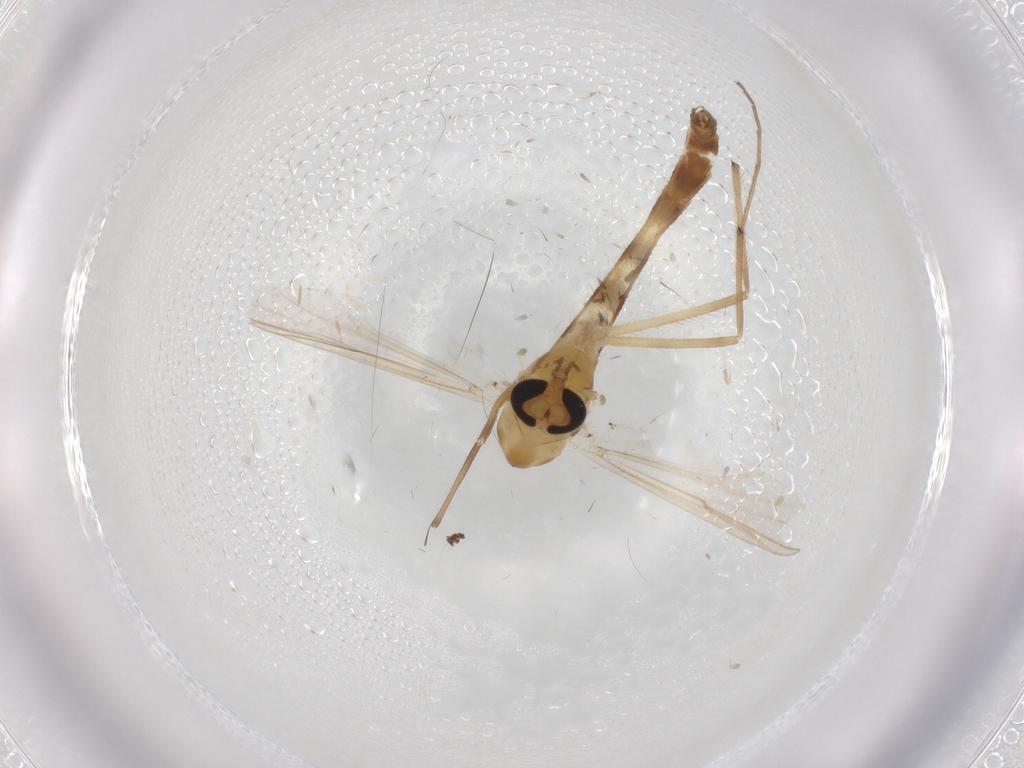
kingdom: Animalia
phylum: Arthropoda
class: Insecta
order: Diptera
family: Chironomidae
